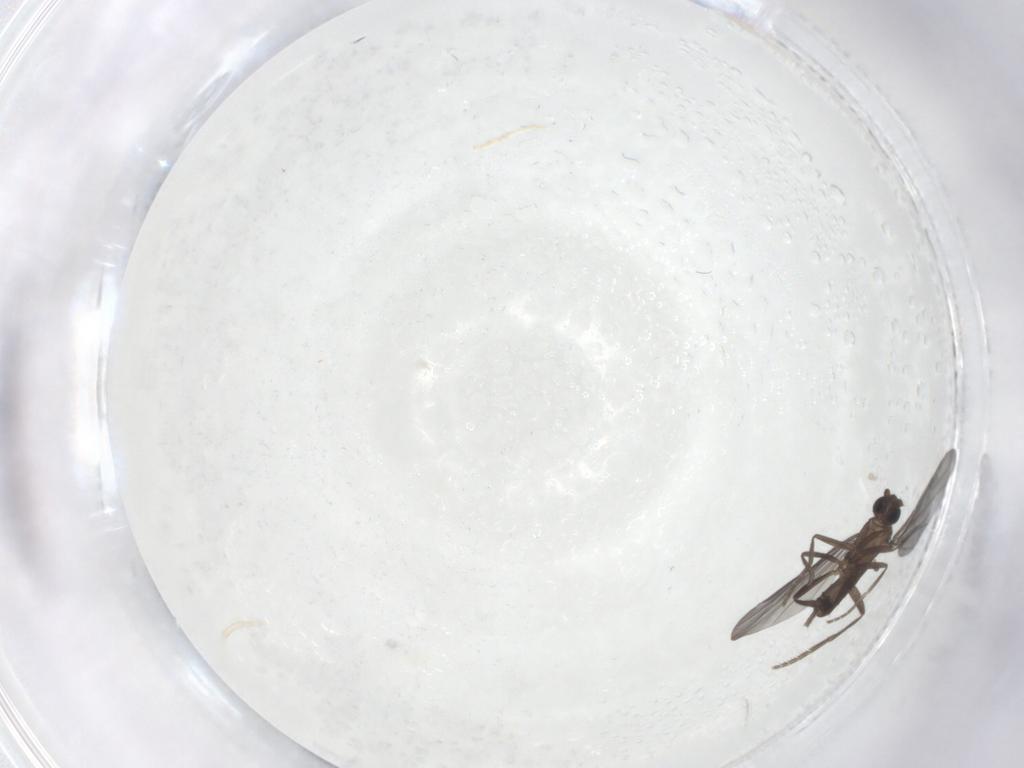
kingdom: Animalia
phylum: Arthropoda
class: Insecta
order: Diptera
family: Phoridae
